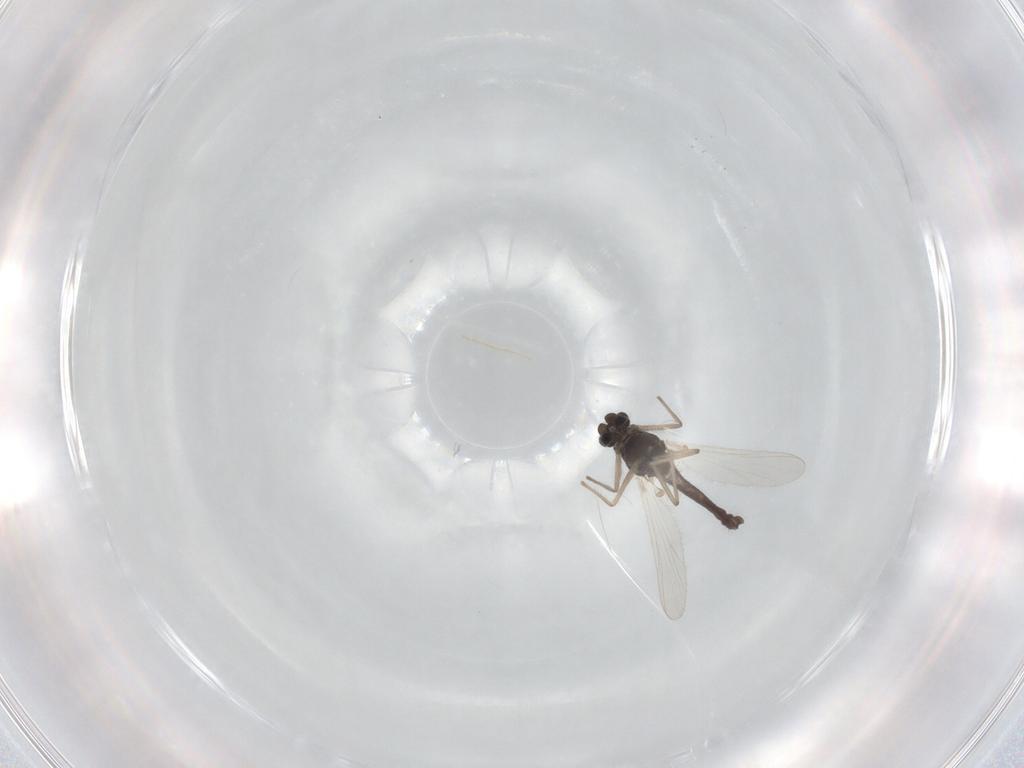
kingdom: Animalia
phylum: Arthropoda
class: Insecta
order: Diptera
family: Chironomidae
